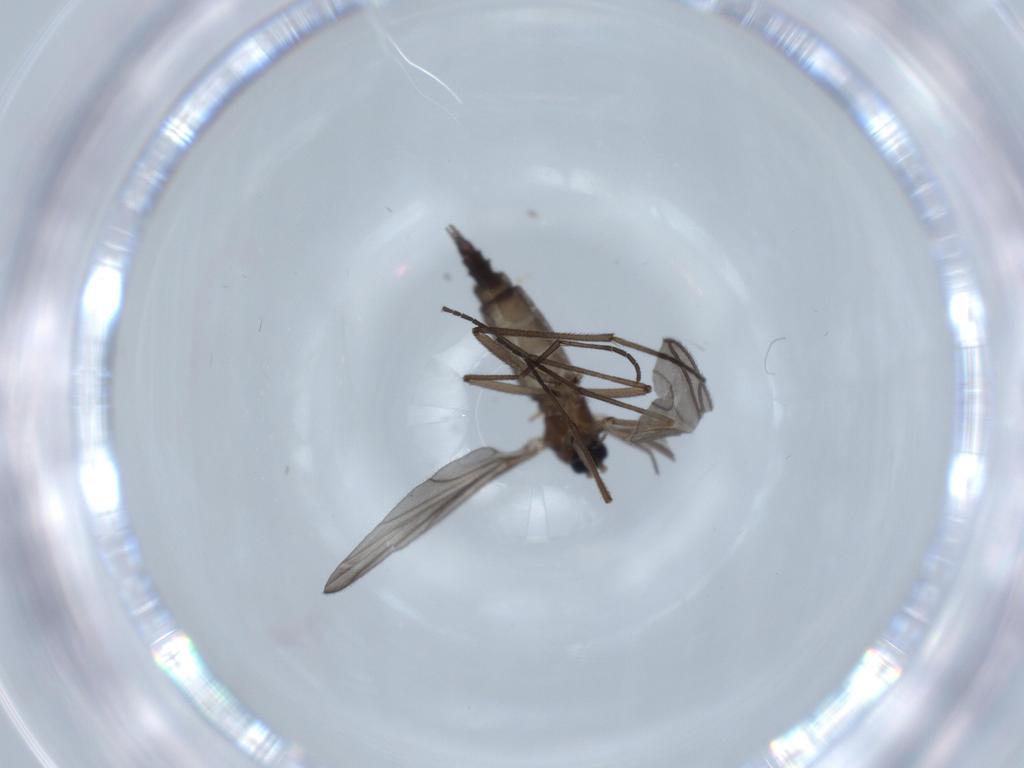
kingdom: Animalia
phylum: Arthropoda
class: Insecta
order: Diptera
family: Sciaridae
